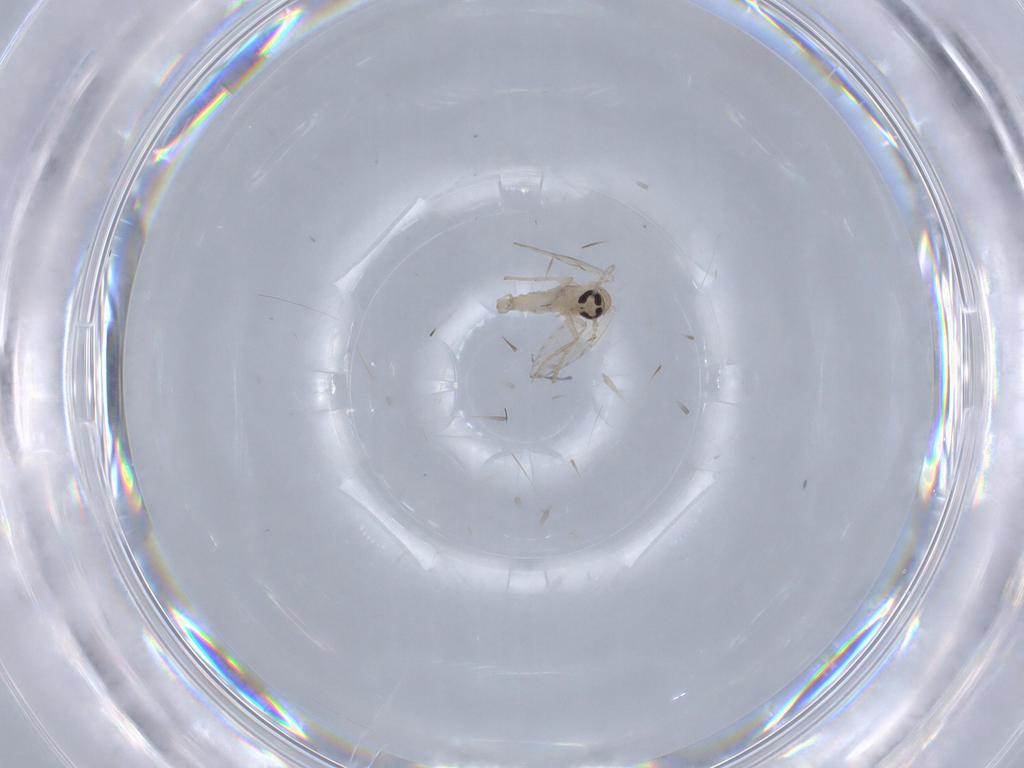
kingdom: Animalia
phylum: Arthropoda
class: Insecta
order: Diptera
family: Psychodidae
